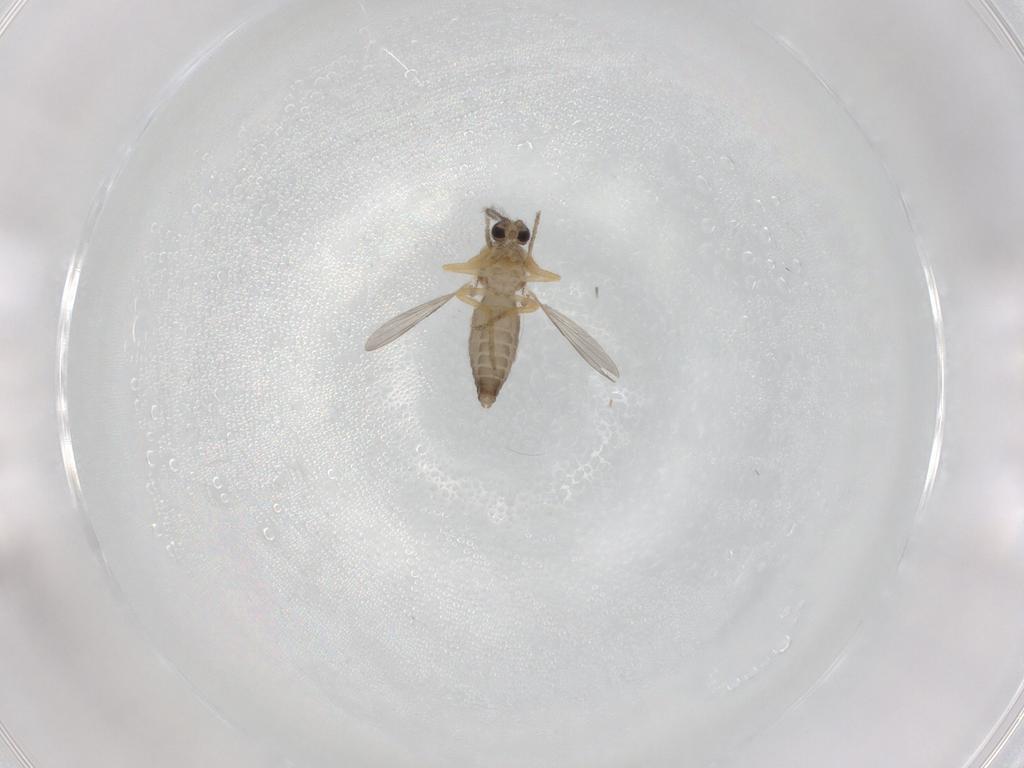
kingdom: Animalia
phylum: Arthropoda
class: Insecta
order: Diptera
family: Ceratopogonidae
